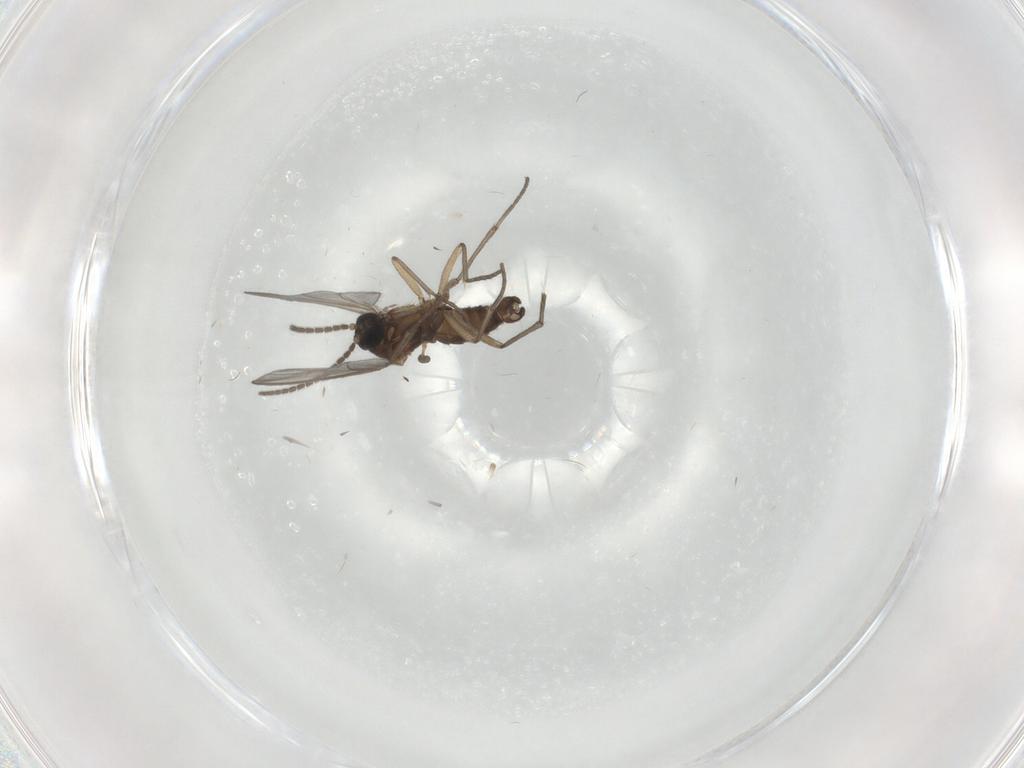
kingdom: Animalia
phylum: Arthropoda
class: Insecta
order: Diptera
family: Sciaridae
